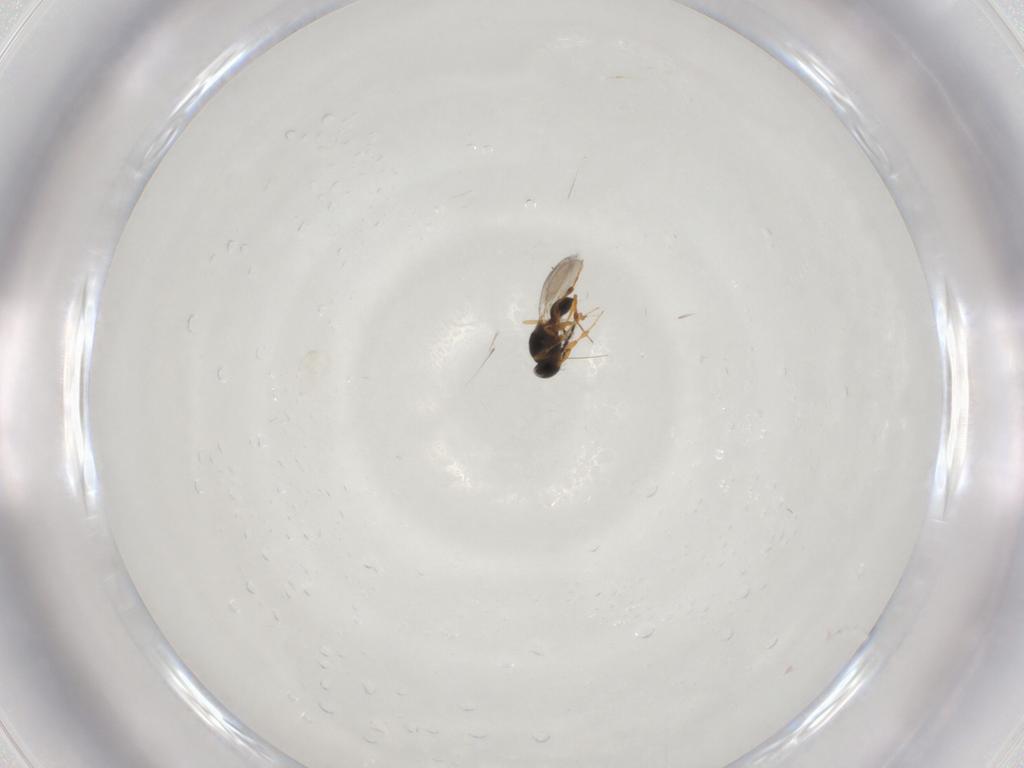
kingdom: Animalia
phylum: Arthropoda
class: Insecta
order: Hymenoptera
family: Platygastridae
